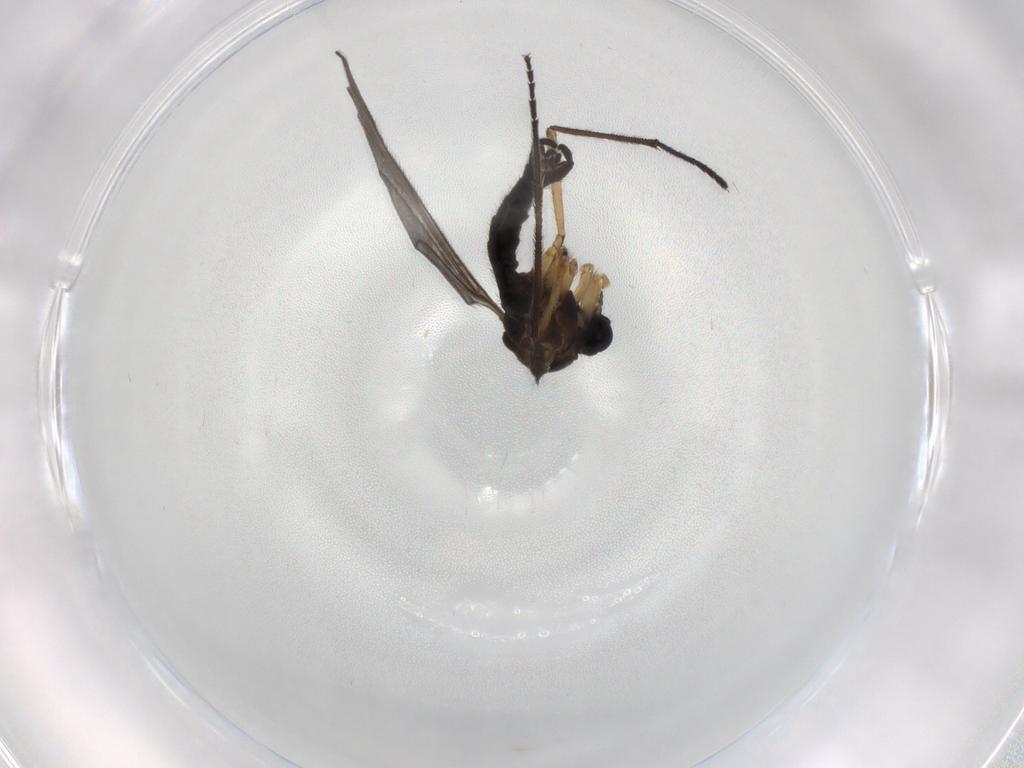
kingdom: Animalia
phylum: Arthropoda
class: Insecta
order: Diptera
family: Sciaridae
